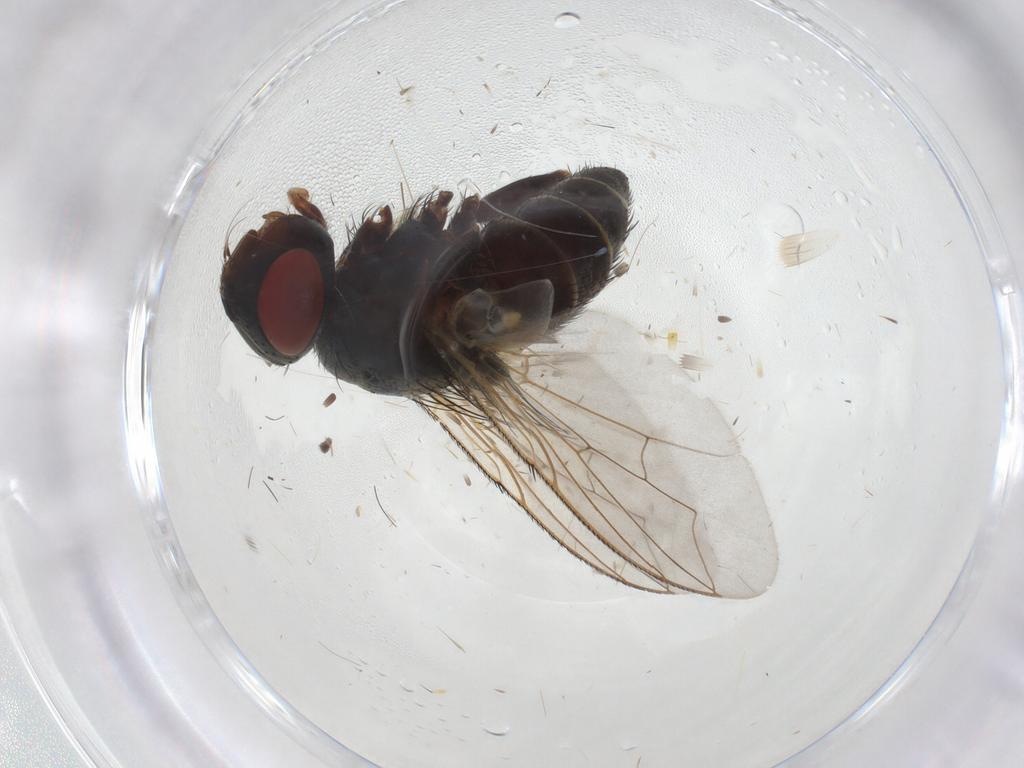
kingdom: Animalia
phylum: Arthropoda
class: Insecta
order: Diptera
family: Sarcophagidae
